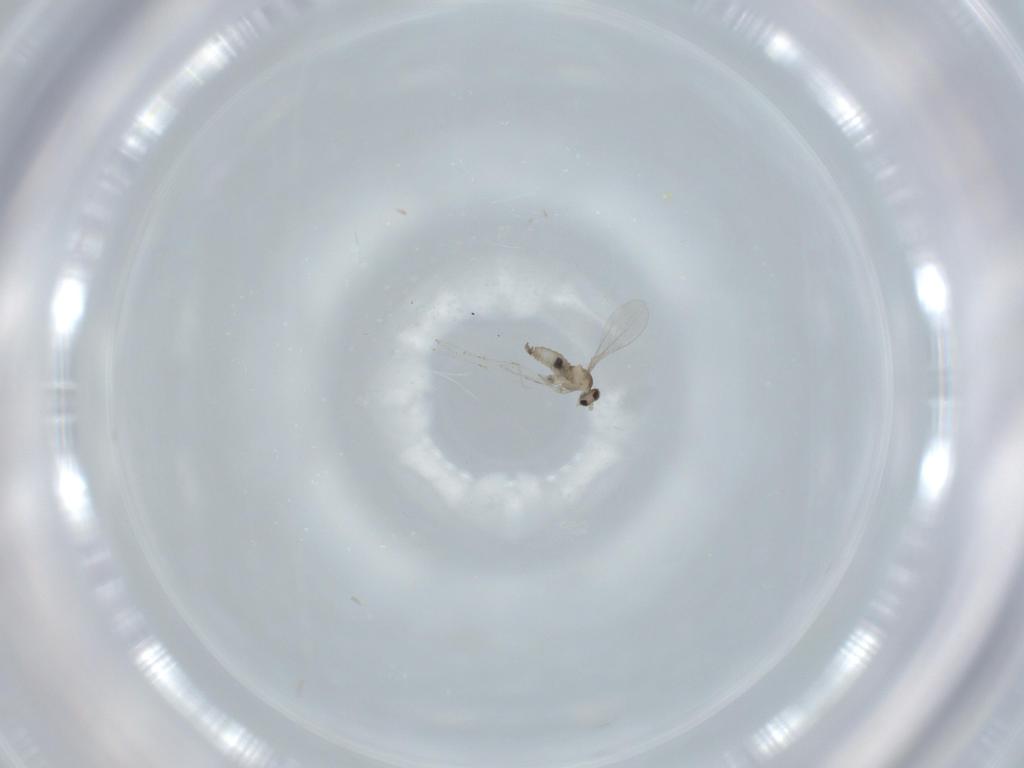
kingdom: Animalia
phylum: Arthropoda
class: Insecta
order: Diptera
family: Cecidomyiidae
